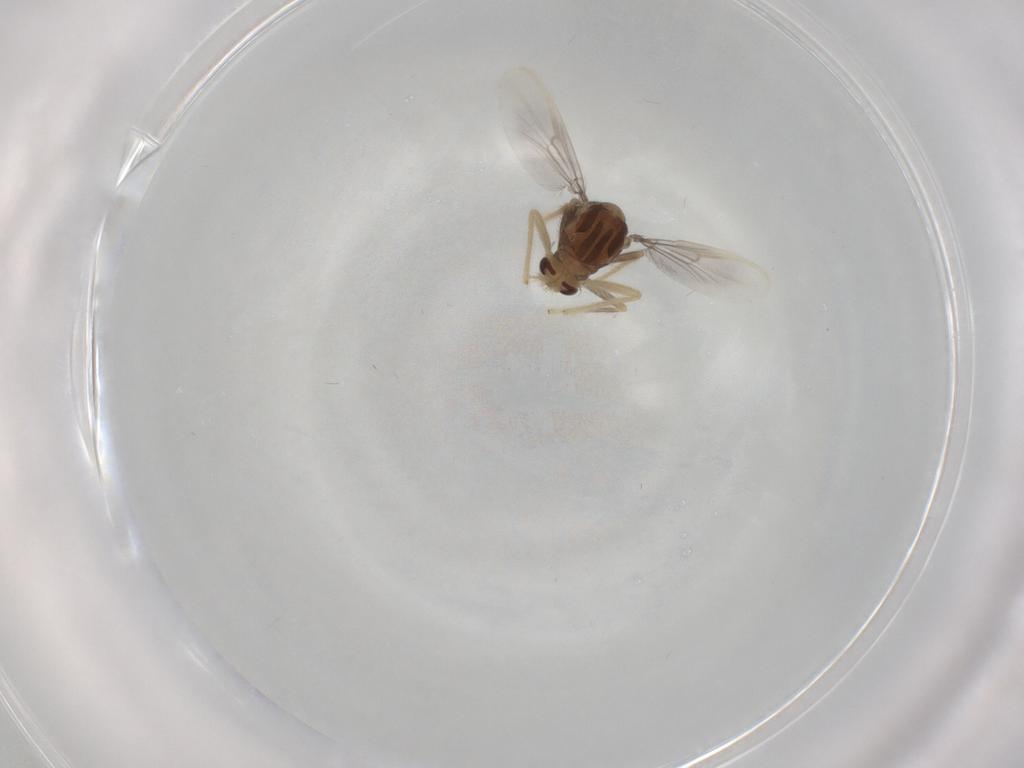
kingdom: Animalia
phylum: Arthropoda
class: Insecta
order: Diptera
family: Chironomidae
